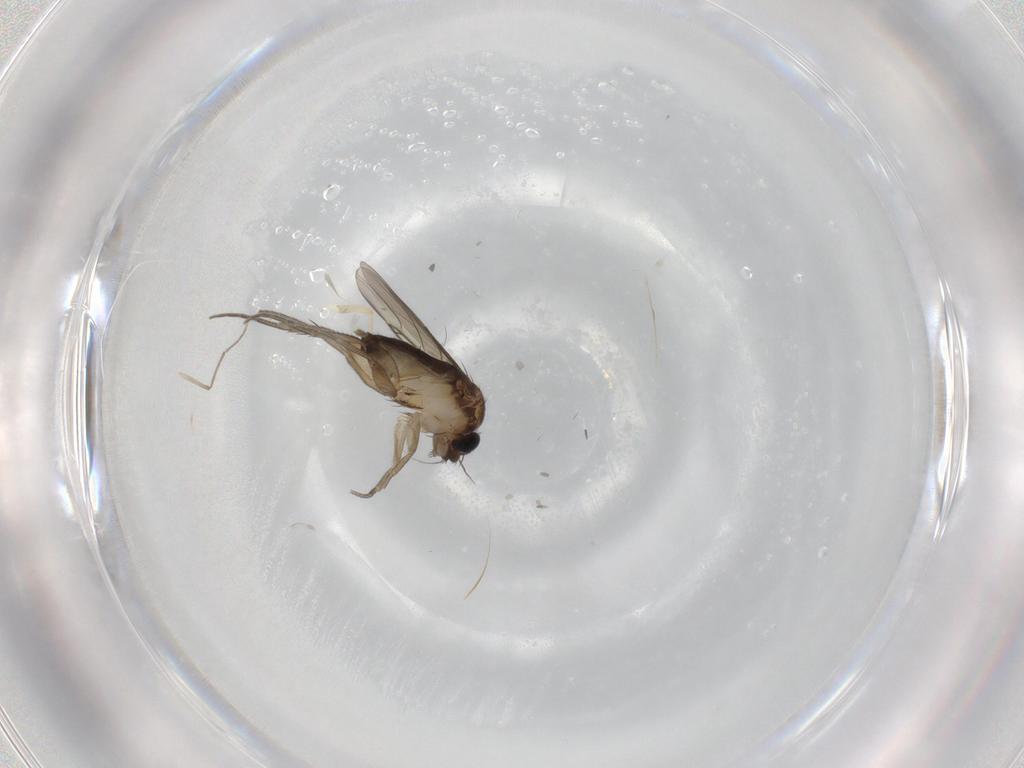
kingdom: Animalia
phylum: Arthropoda
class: Insecta
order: Diptera
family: Phoridae
